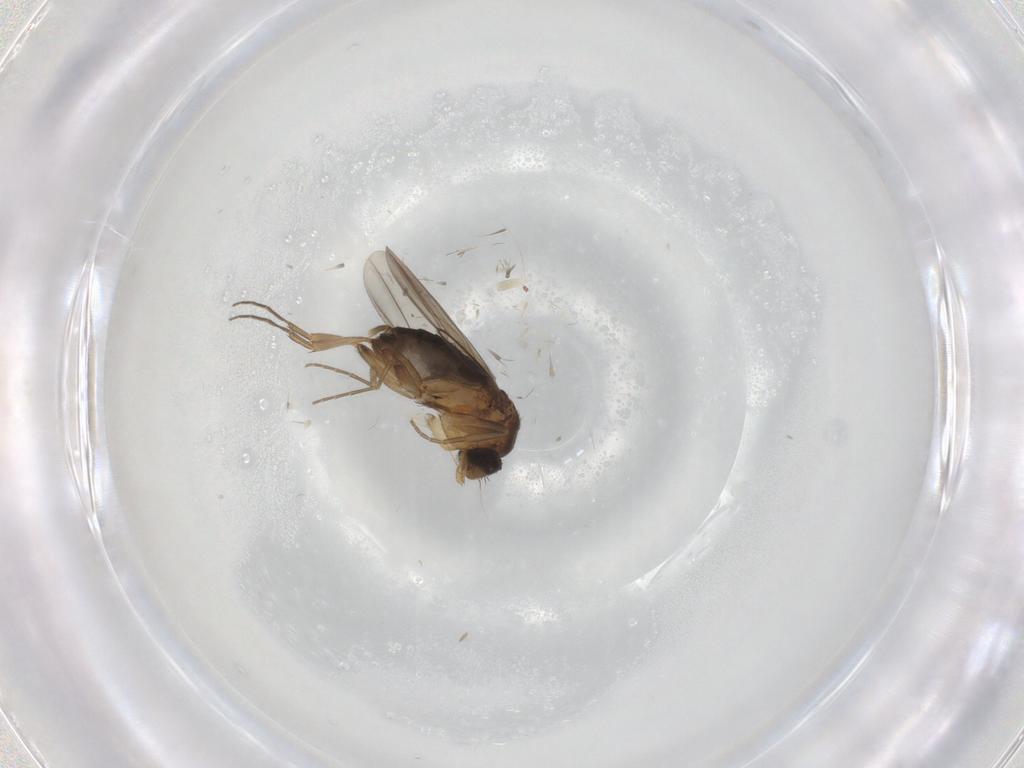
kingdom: Animalia
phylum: Arthropoda
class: Insecta
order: Diptera
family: Phoridae
